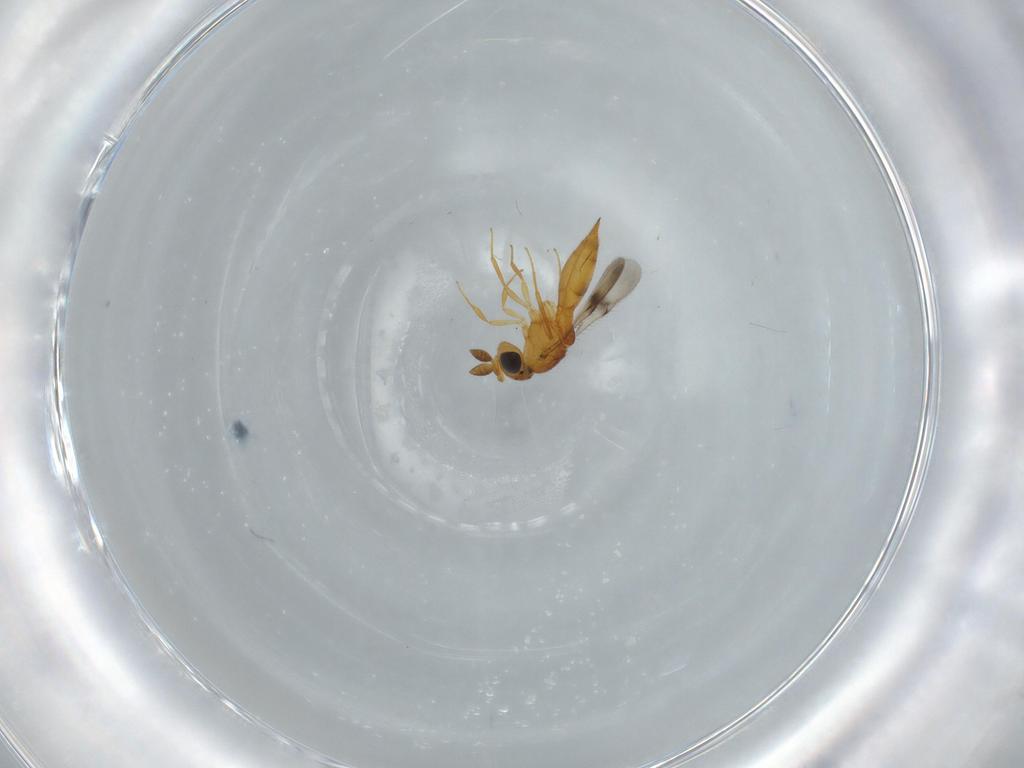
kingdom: Animalia
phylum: Arthropoda
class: Insecta
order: Hymenoptera
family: Scelionidae
